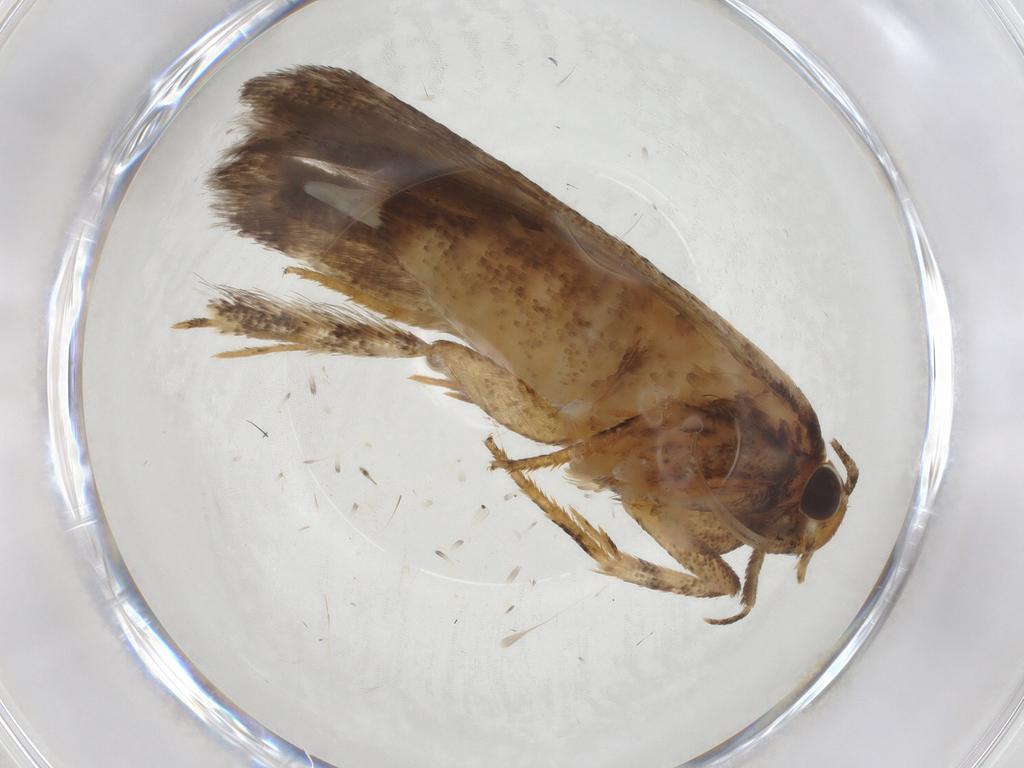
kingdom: Animalia
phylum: Arthropoda
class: Insecta
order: Lepidoptera
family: Gelechiidae
